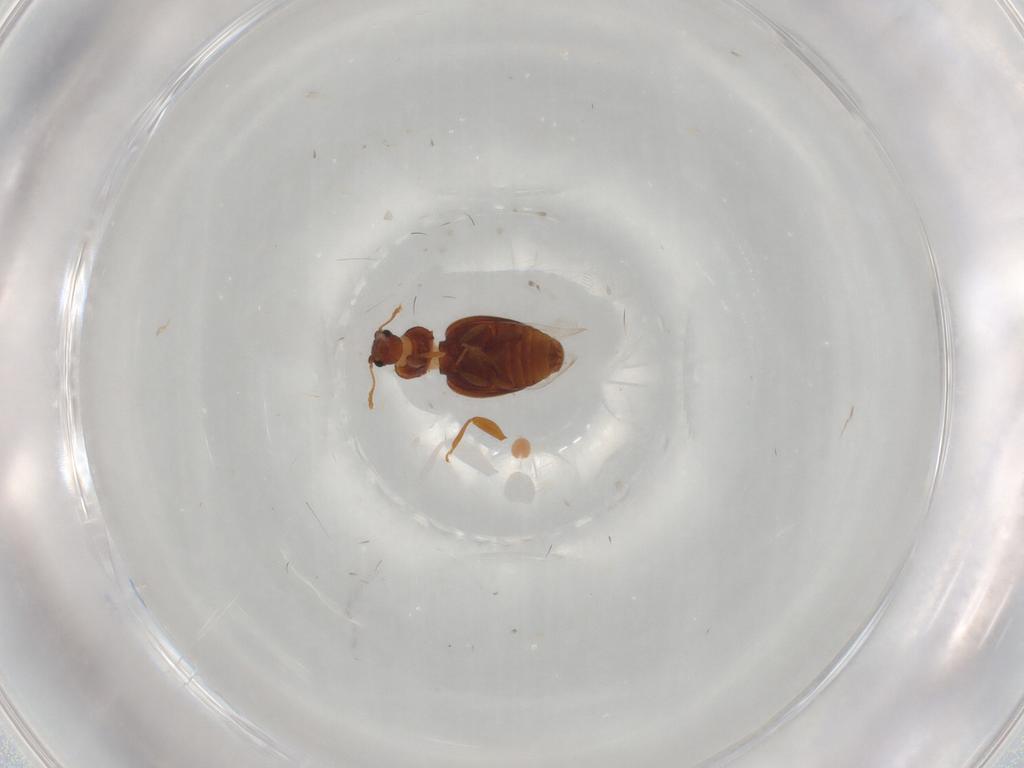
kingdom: Animalia
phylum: Arthropoda
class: Insecta
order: Coleoptera
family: Latridiidae
